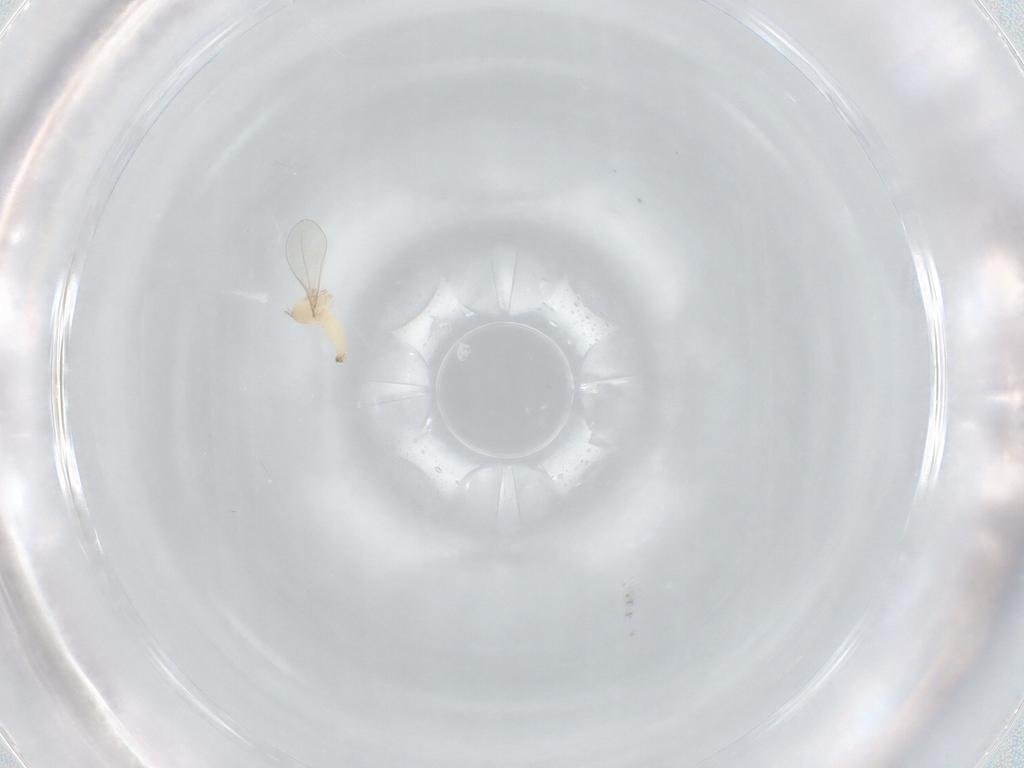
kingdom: Animalia
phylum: Arthropoda
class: Insecta
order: Diptera
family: Cecidomyiidae
